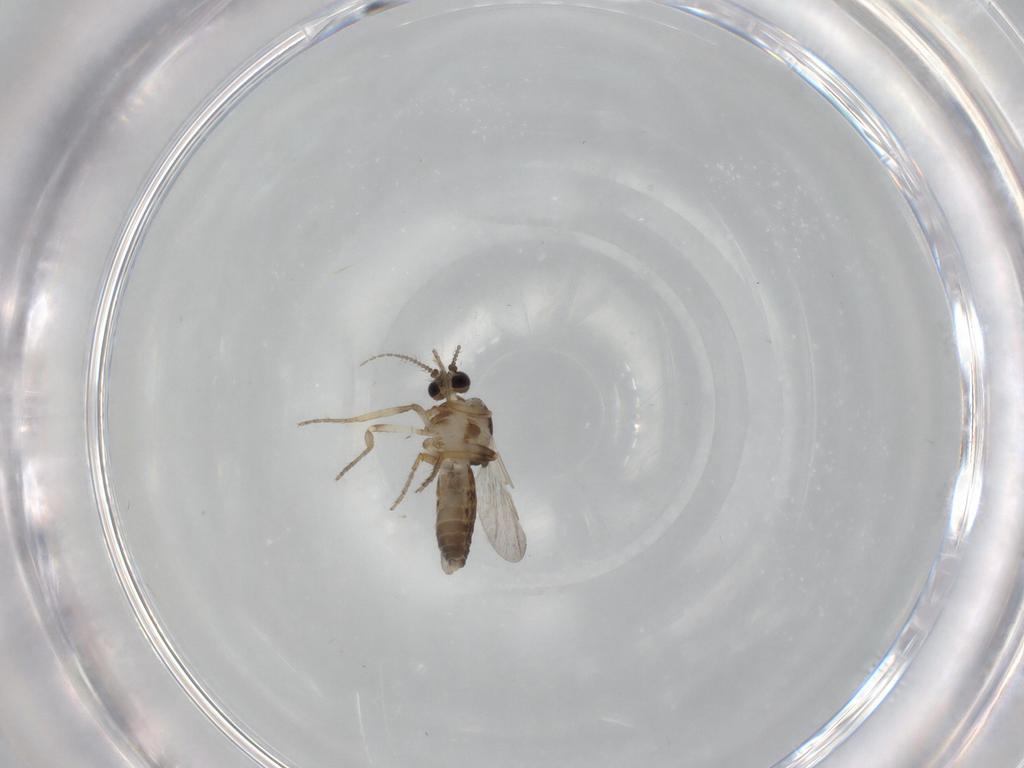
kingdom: Animalia
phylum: Arthropoda
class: Insecta
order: Diptera
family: Ceratopogonidae
